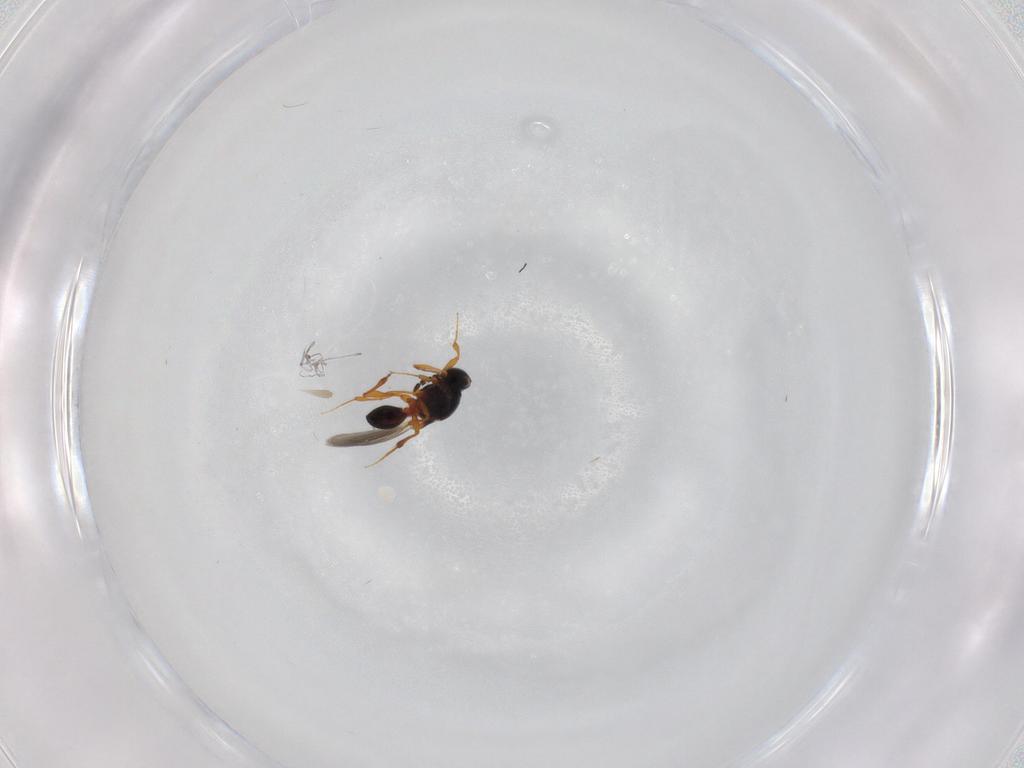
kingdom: Animalia
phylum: Arthropoda
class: Insecta
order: Hymenoptera
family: Platygastridae
